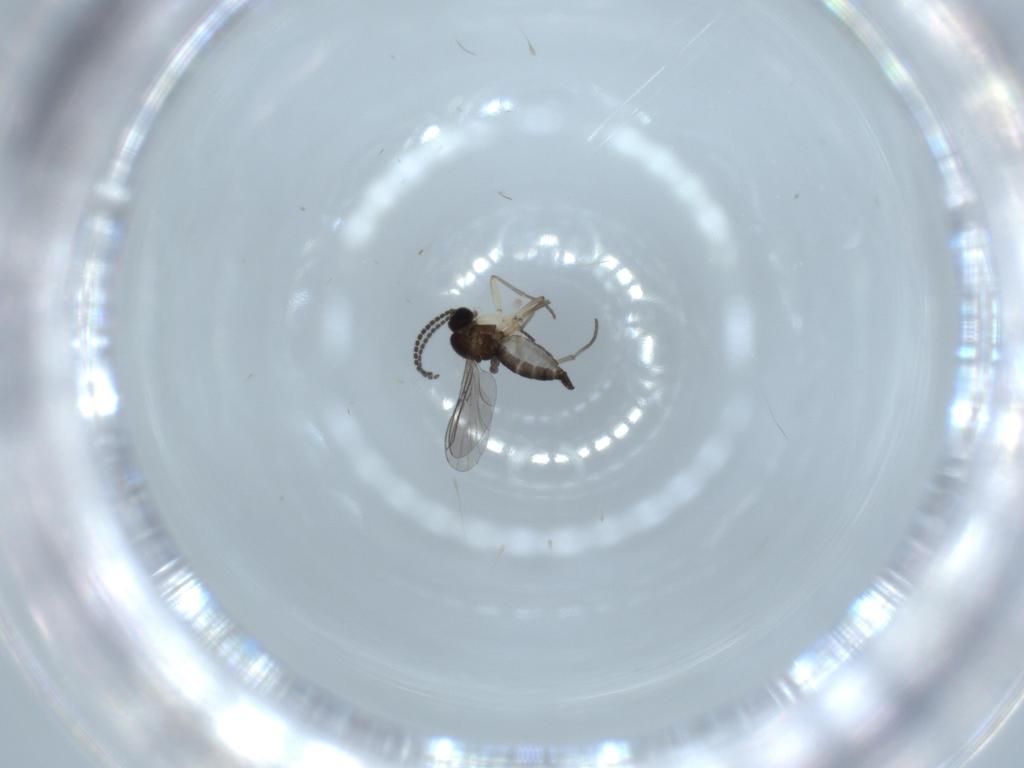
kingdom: Animalia
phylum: Arthropoda
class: Insecta
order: Diptera
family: Sciaridae
